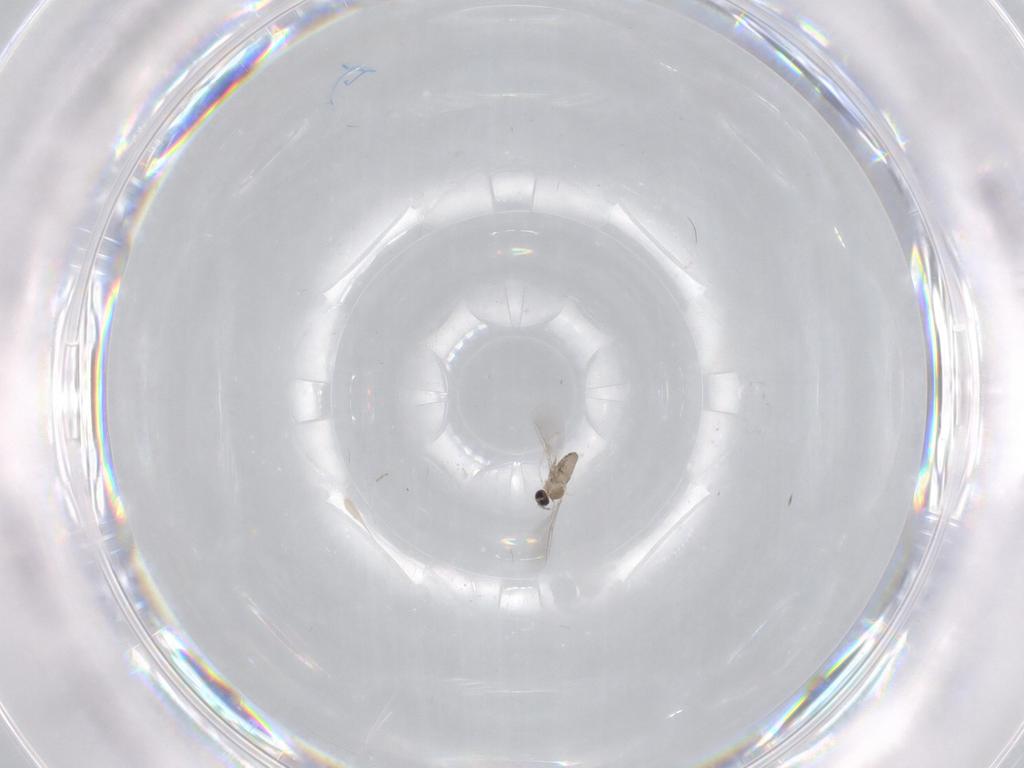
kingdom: Animalia
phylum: Arthropoda
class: Insecta
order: Diptera
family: Cecidomyiidae
